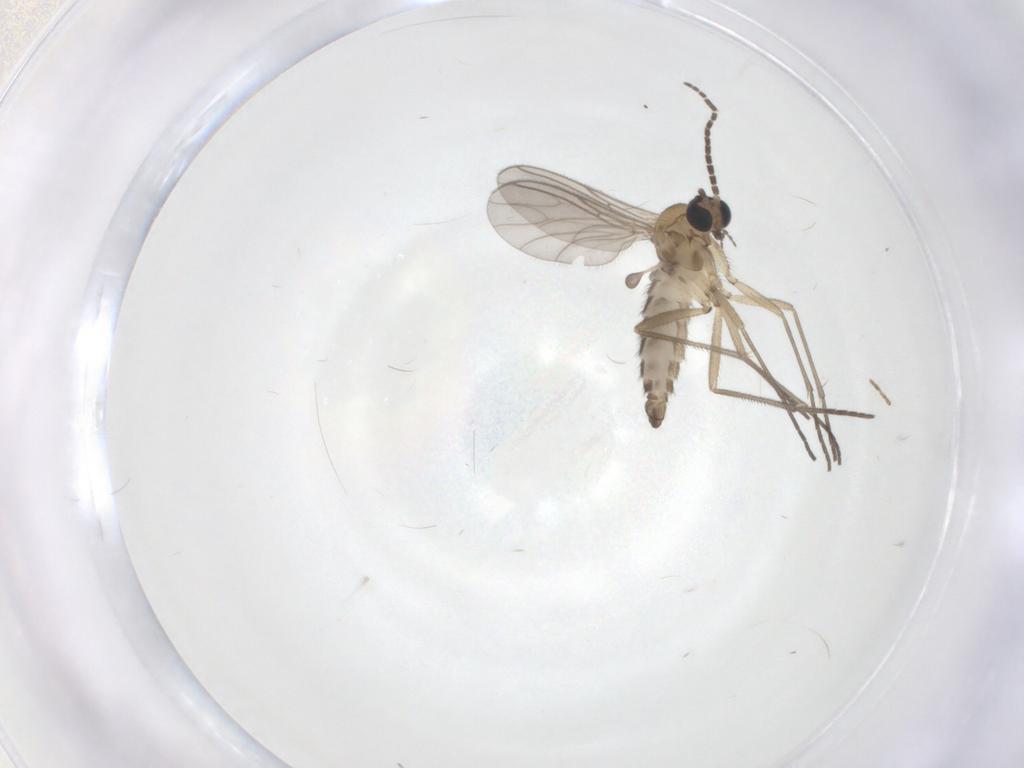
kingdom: Animalia
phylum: Arthropoda
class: Insecta
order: Diptera
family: Sciaridae
